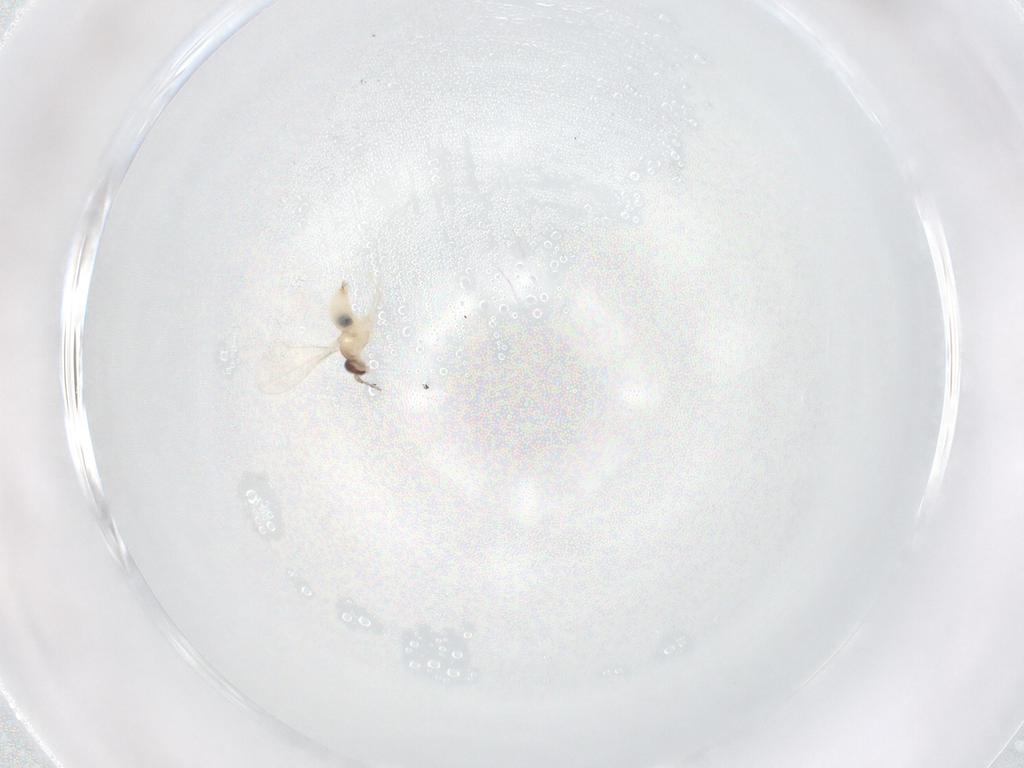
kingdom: Animalia
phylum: Arthropoda
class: Insecta
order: Diptera
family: Cecidomyiidae
